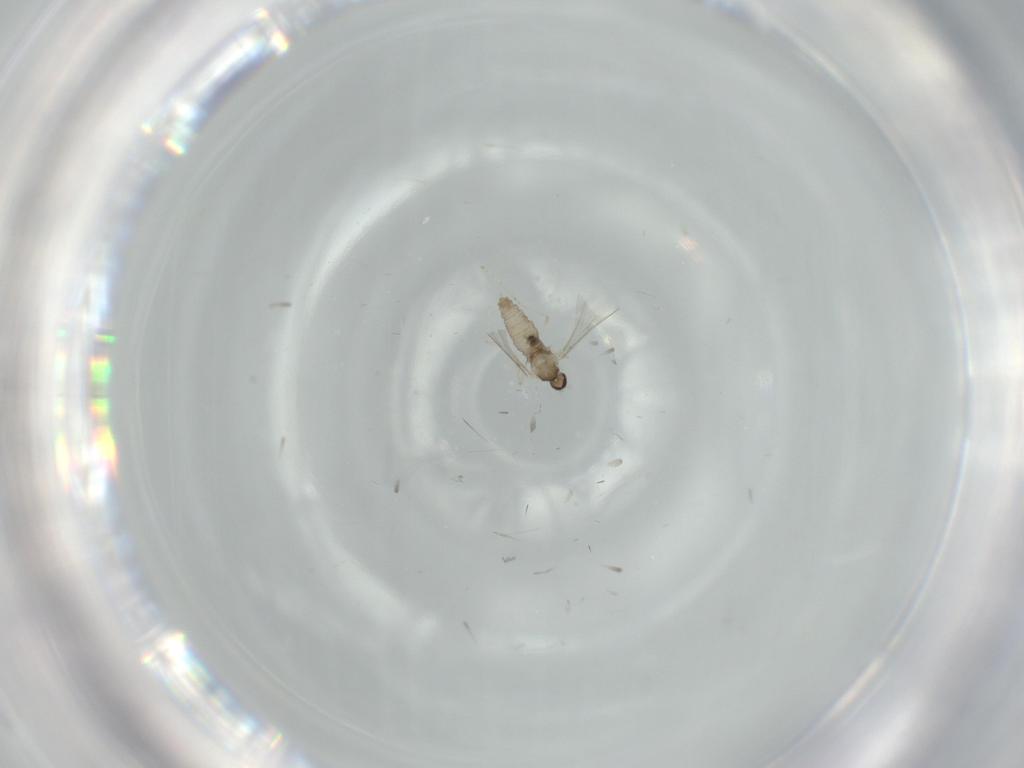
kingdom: Animalia
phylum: Arthropoda
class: Insecta
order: Diptera
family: Cecidomyiidae
